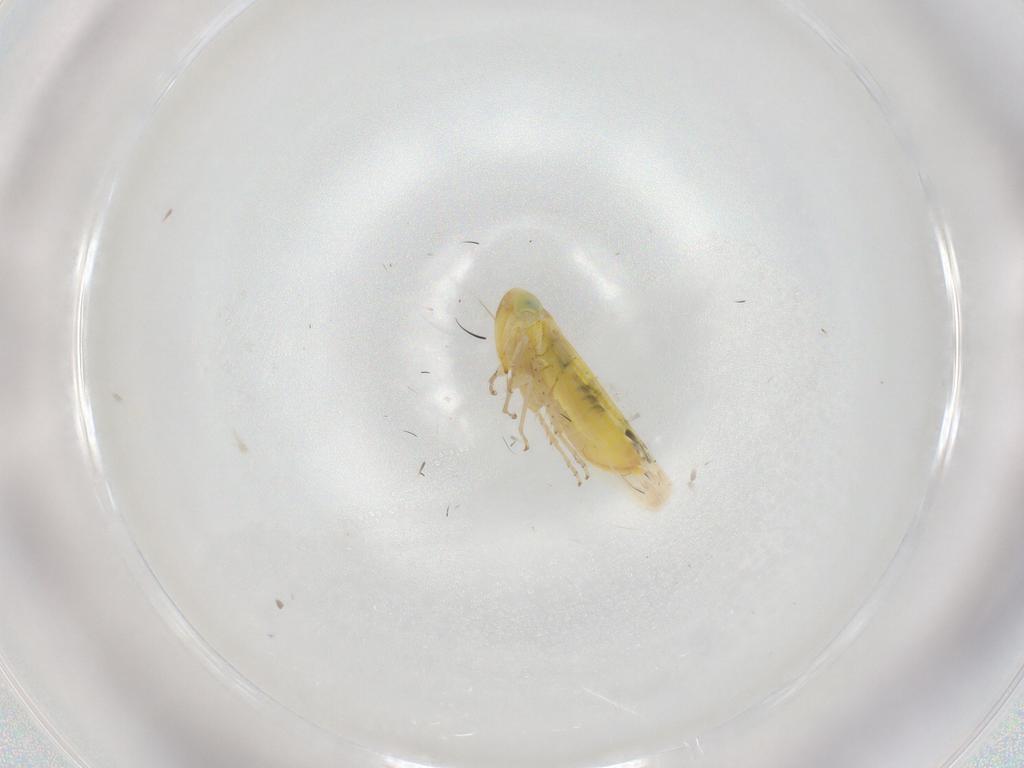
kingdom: Animalia
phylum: Arthropoda
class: Insecta
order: Hemiptera
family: Cicadellidae
